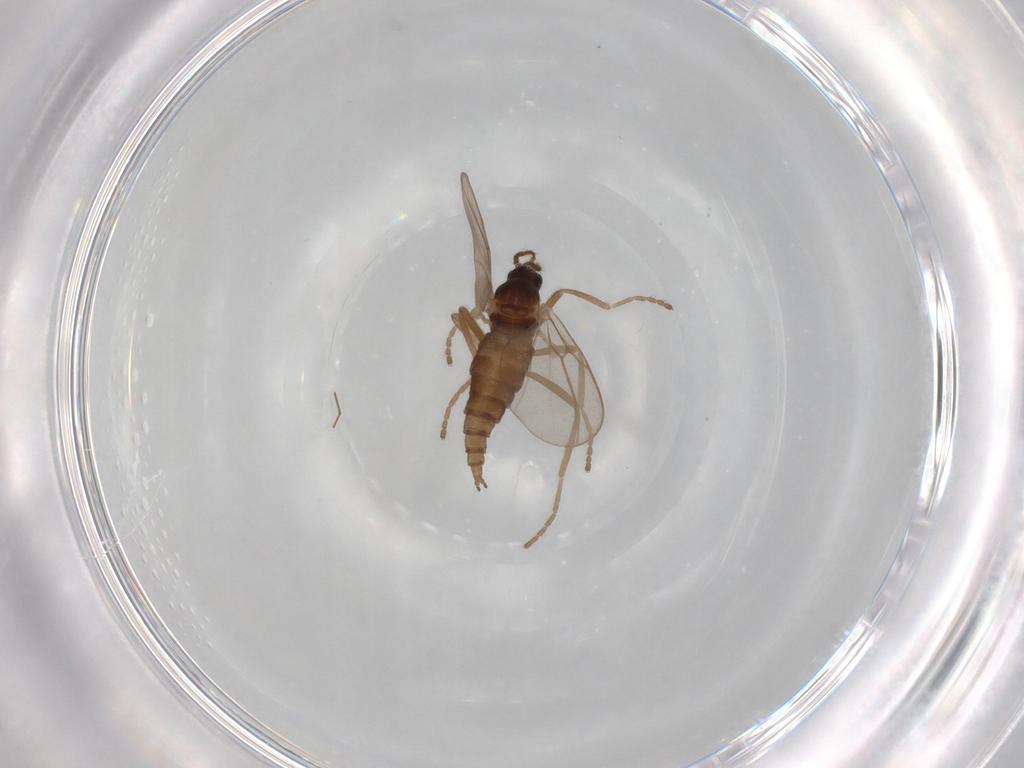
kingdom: Animalia
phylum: Arthropoda
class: Insecta
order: Diptera
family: Cecidomyiidae
